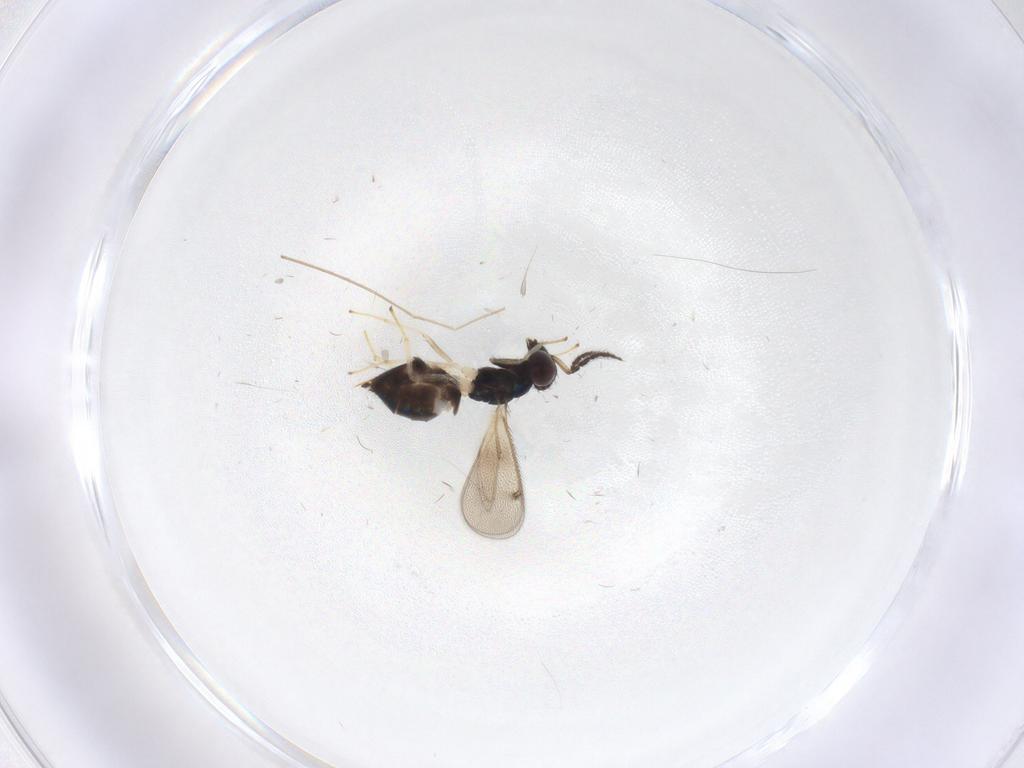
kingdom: Animalia
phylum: Arthropoda
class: Insecta
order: Hymenoptera
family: Eulophidae
